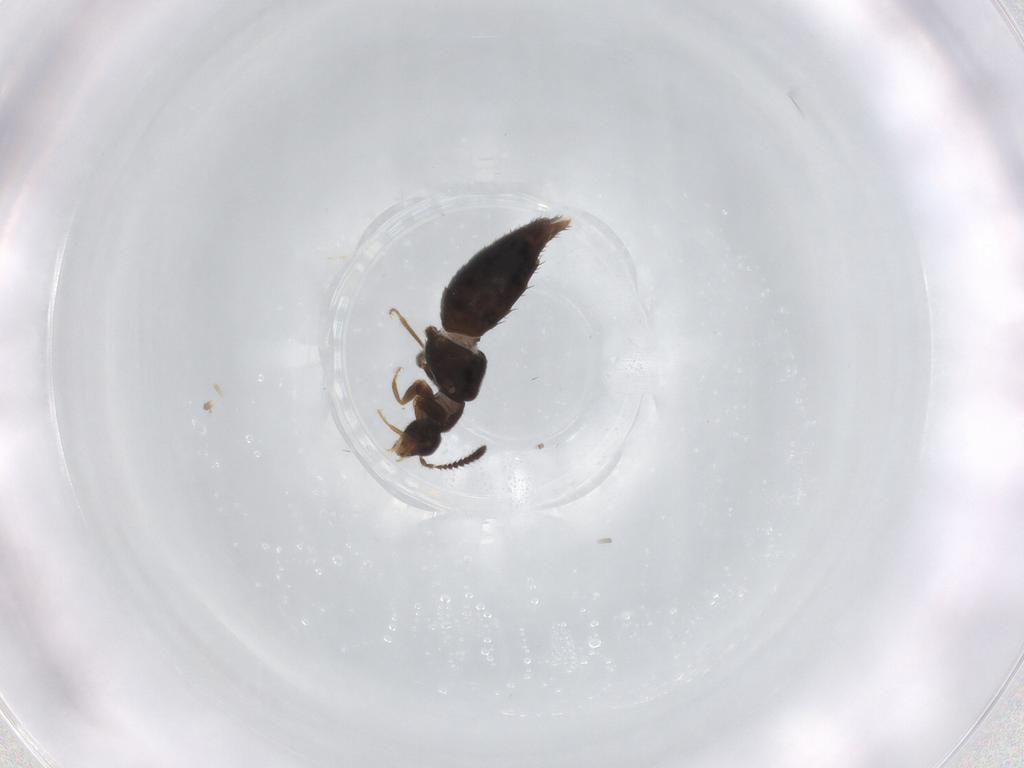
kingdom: Animalia
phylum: Arthropoda
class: Insecta
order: Coleoptera
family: Staphylinidae
